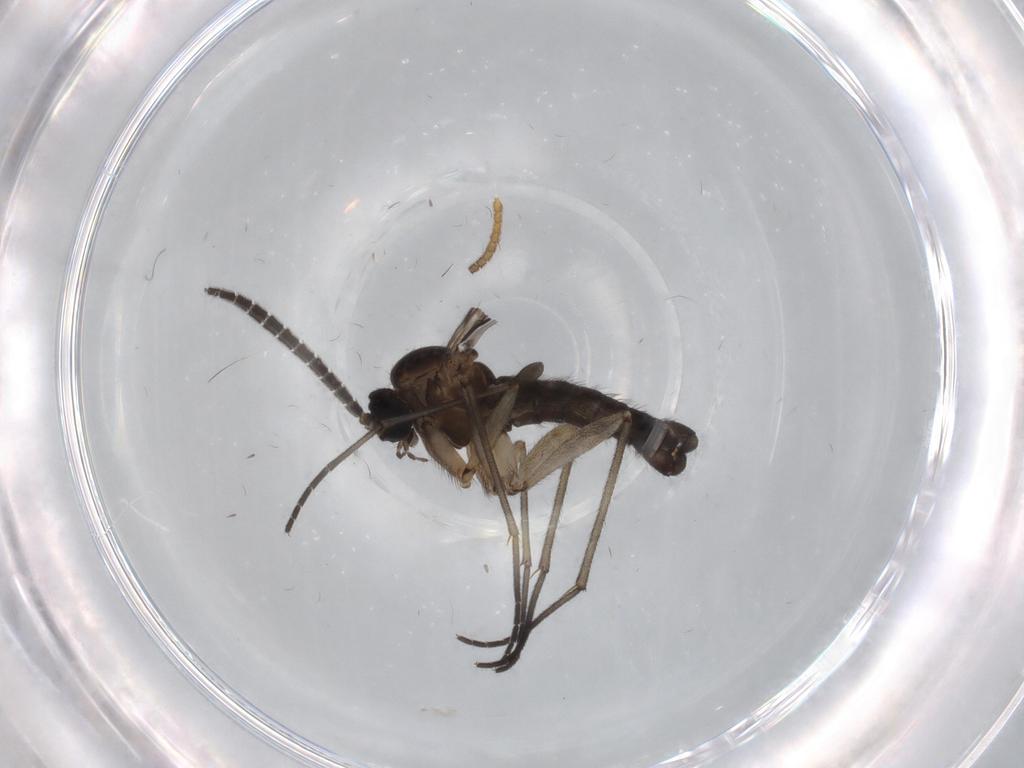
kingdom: Animalia
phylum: Arthropoda
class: Insecta
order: Diptera
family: Sciaridae
